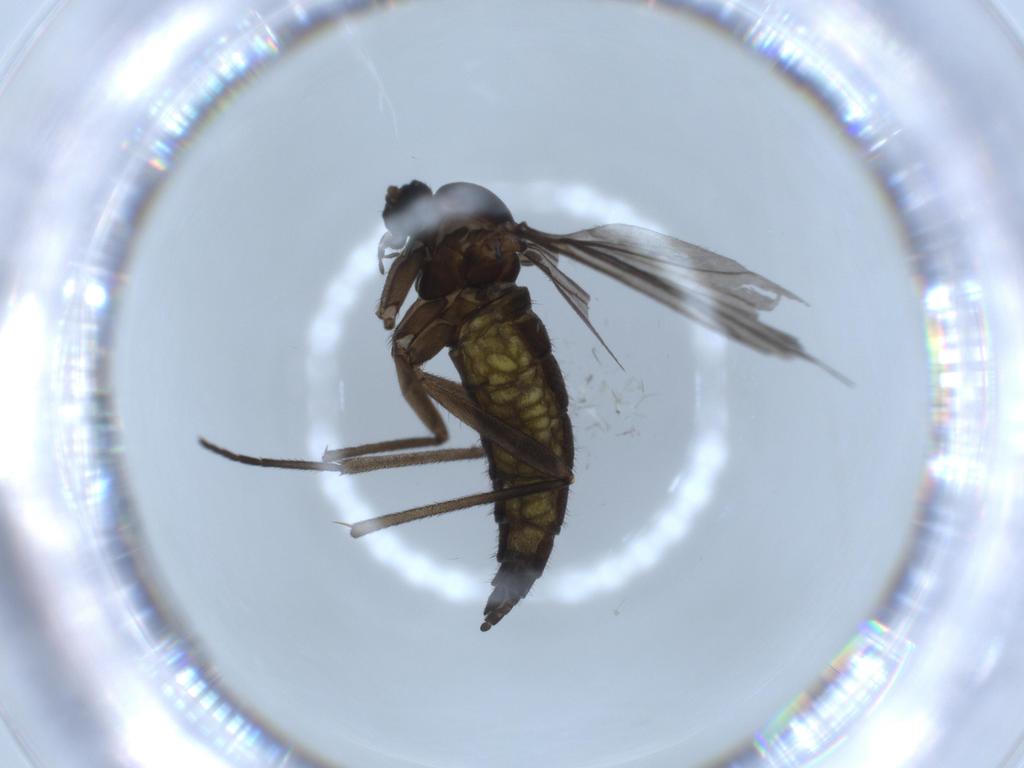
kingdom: Animalia
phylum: Arthropoda
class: Insecta
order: Diptera
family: Sciaridae
